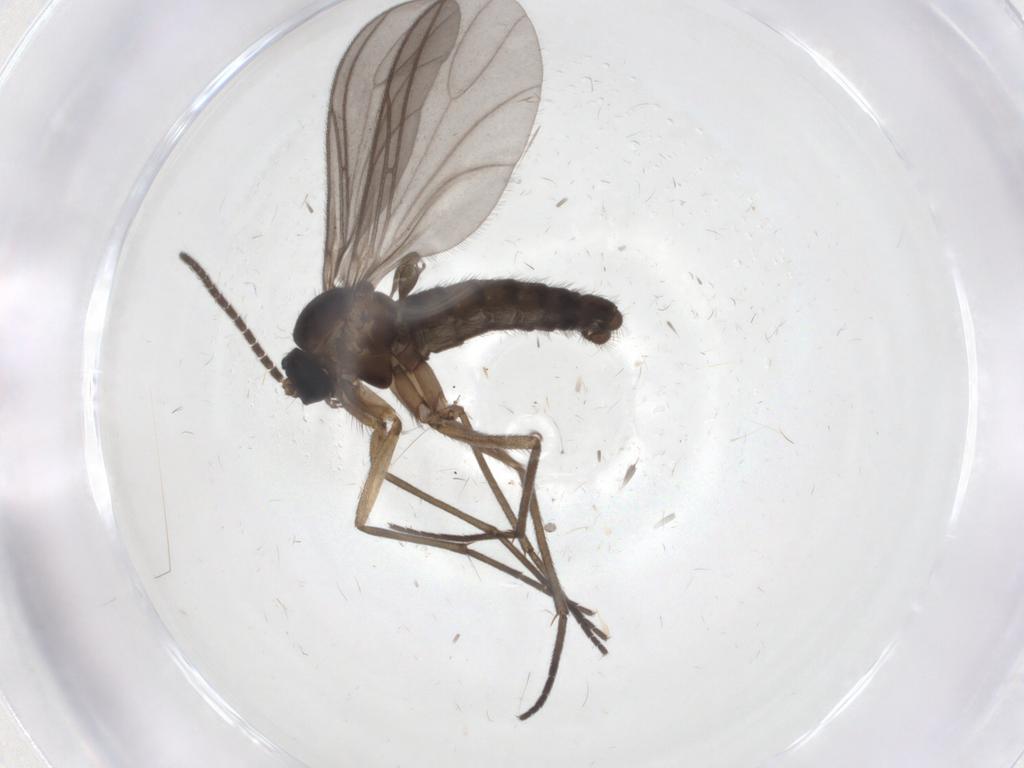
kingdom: Animalia
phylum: Arthropoda
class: Insecta
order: Diptera
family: Sciaridae
